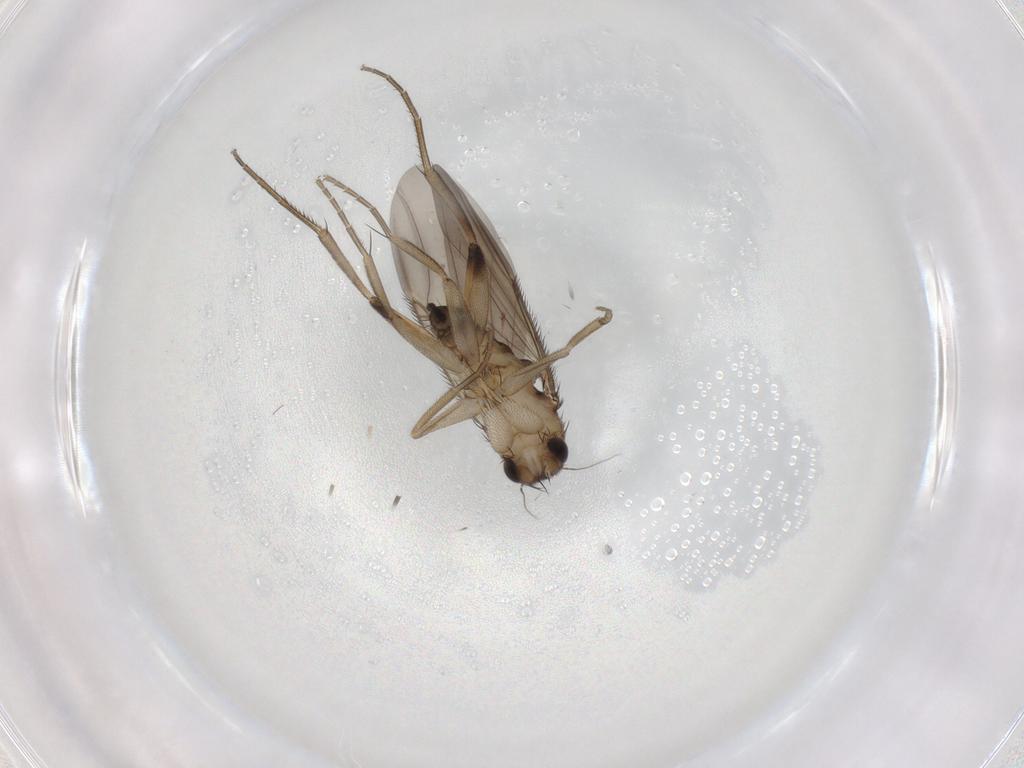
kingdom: Animalia
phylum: Arthropoda
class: Insecta
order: Diptera
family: Phoridae
